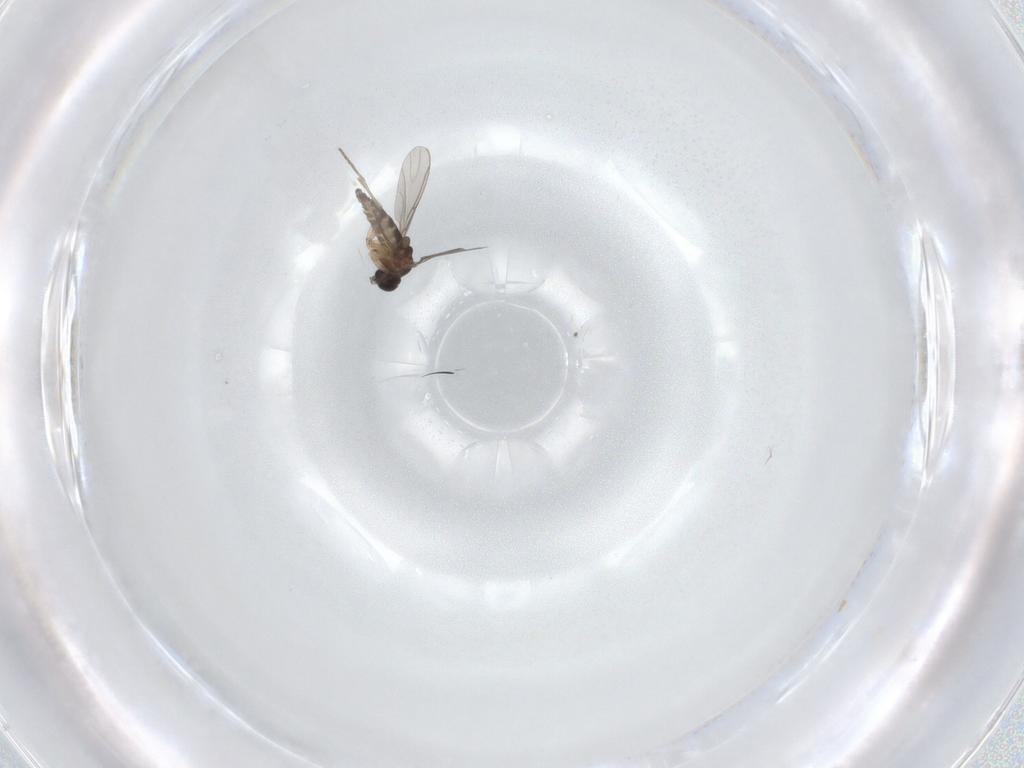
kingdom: Animalia
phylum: Arthropoda
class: Insecta
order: Diptera
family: Sciaridae
